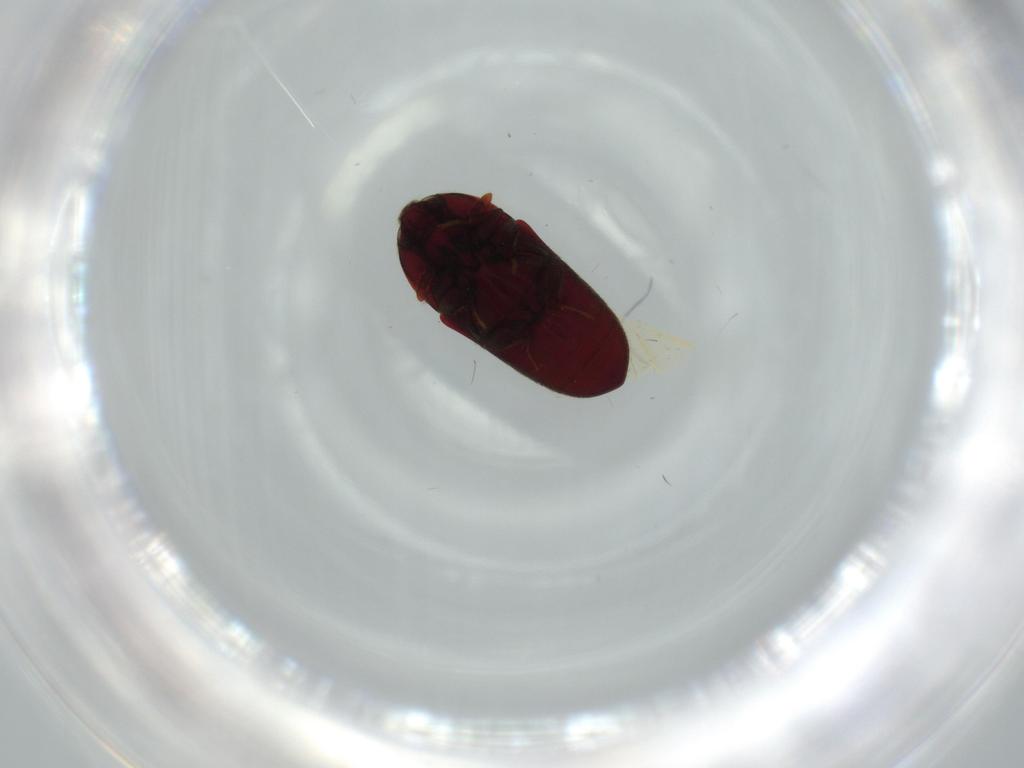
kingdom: Animalia
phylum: Arthropoda
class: Insecta
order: Coleoptera
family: Throscidae
